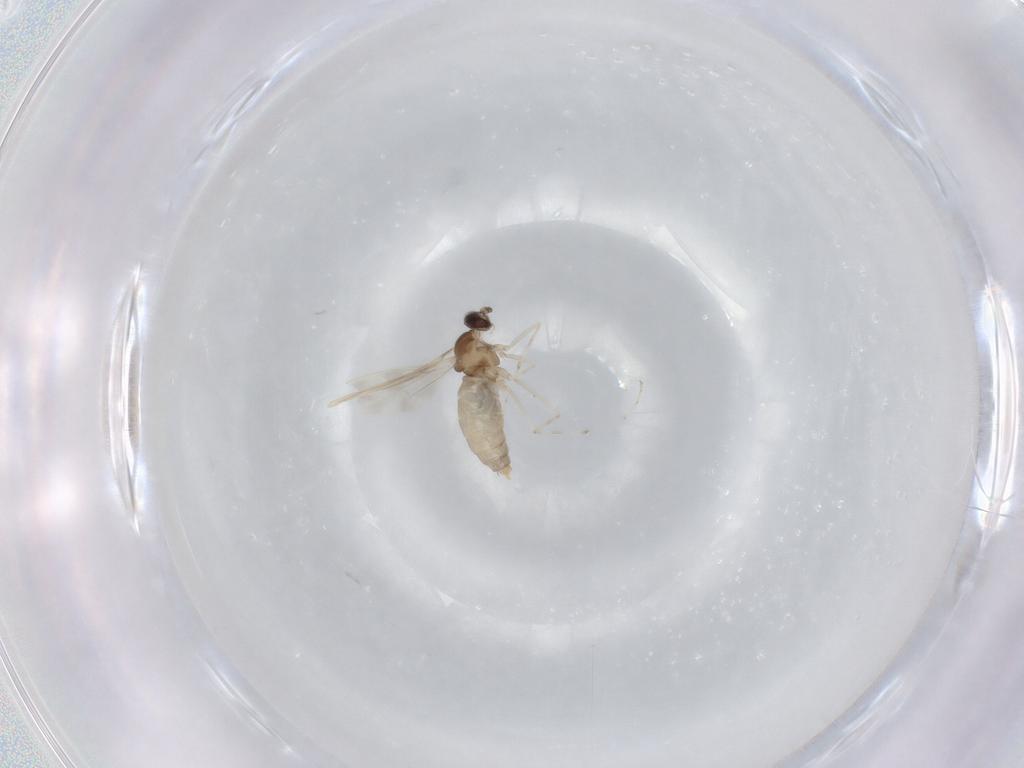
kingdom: Animalia
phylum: Arthropoda
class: Insecta
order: Diptera
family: Cecidomyiidae
